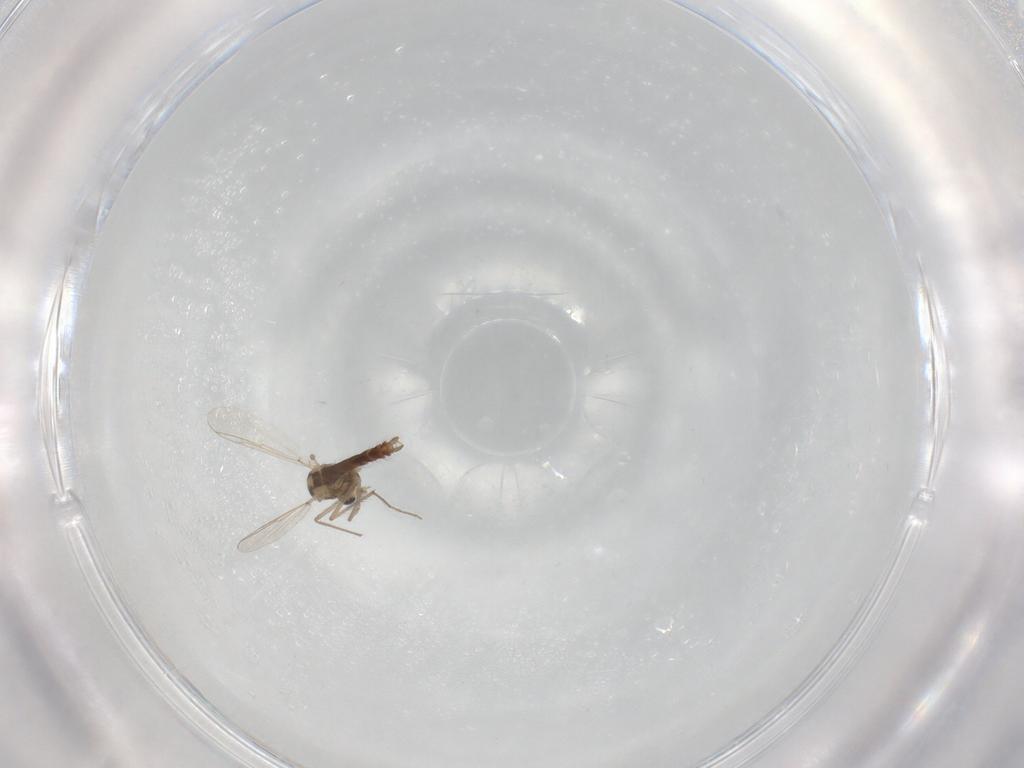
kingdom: Animalia
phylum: Arthropoda
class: Insecta
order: Diptera
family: Chironomidae
